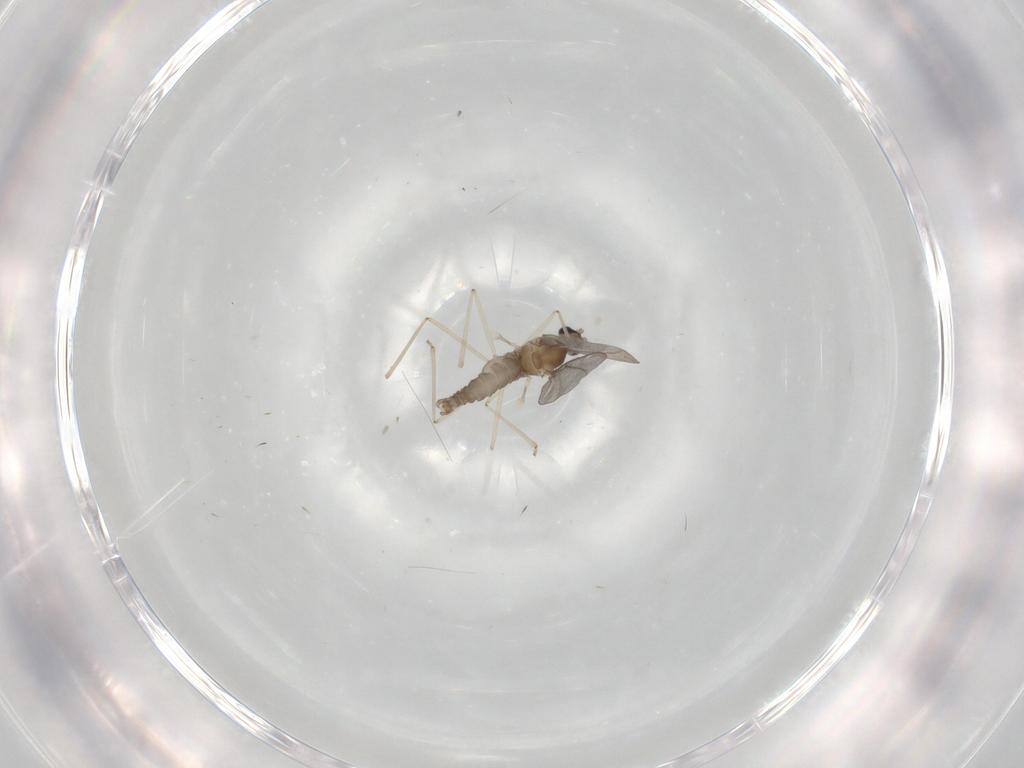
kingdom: Animalia
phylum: Arthropoda
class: Insecta
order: Diptera
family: Cecidomyiidae
